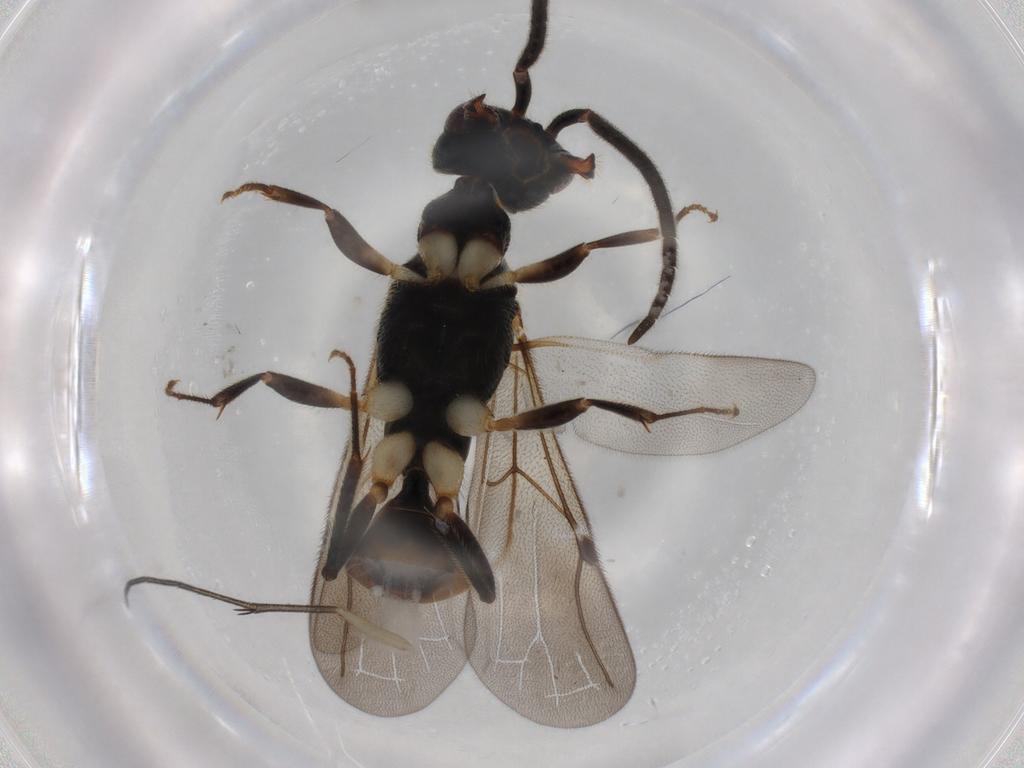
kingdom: Animalia
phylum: Arthropoda
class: Insecta
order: Hymenoptera
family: Bethylidae
